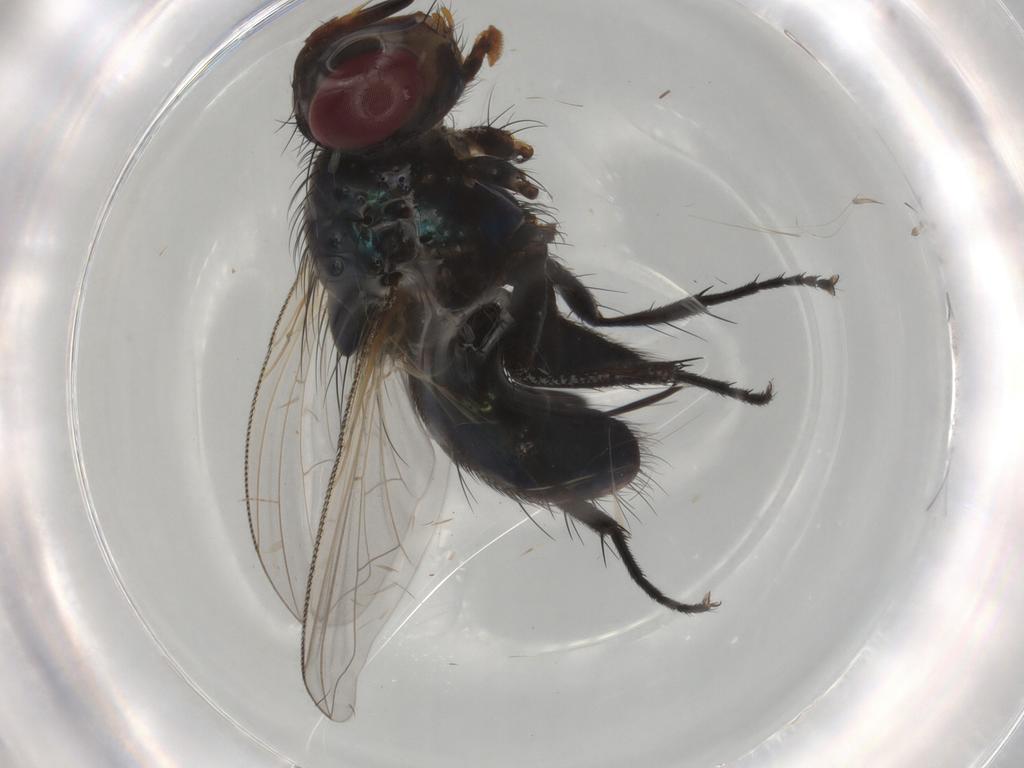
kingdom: Animalia
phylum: Arthropoda
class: Insecta
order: Diptera
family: Tachinidae
